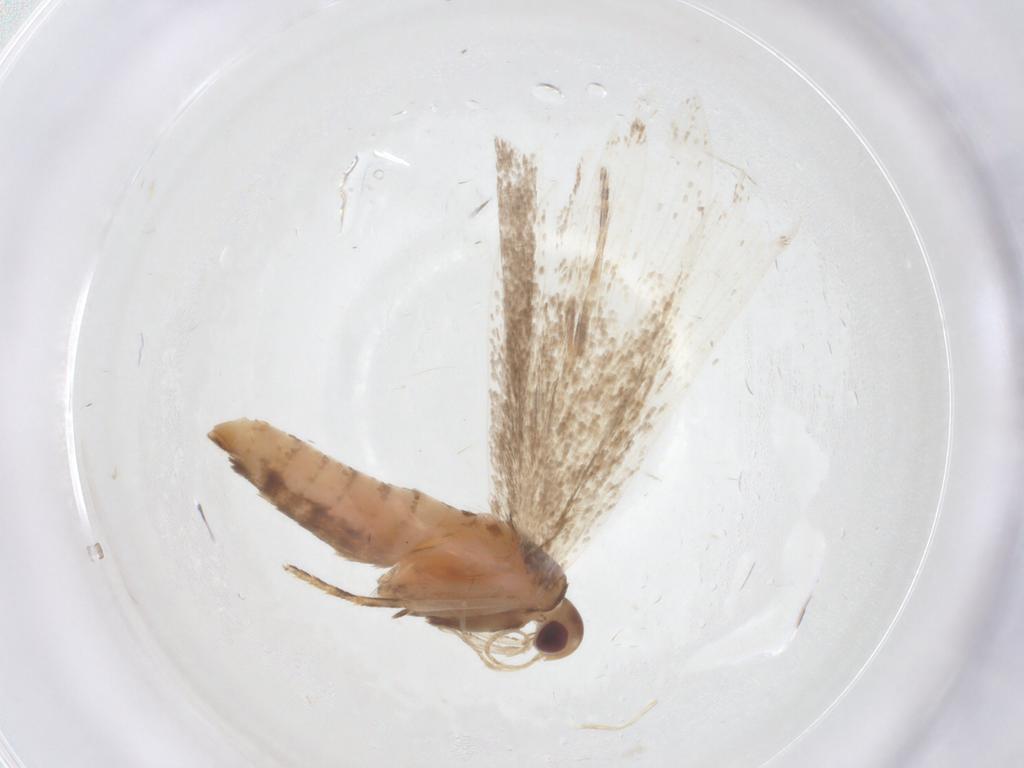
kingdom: Animalia
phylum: Arthropoda
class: Insecta
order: Lepidoptera
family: Gelechiidae
